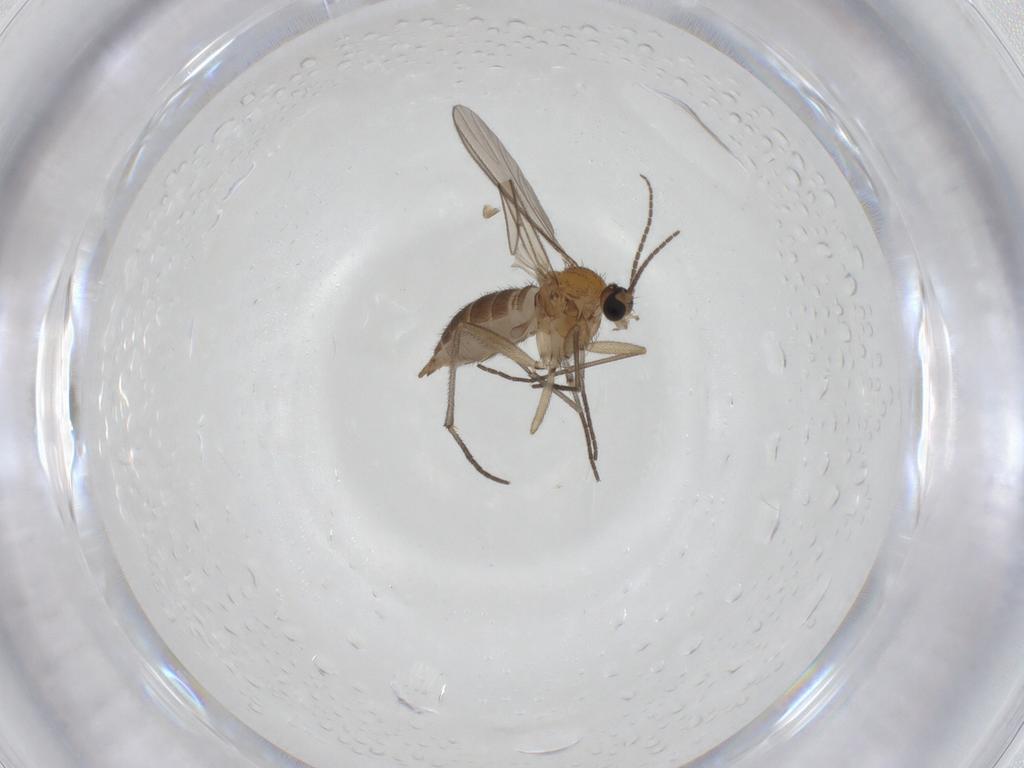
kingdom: Animalia
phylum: Arthropoda
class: Insecta
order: Diptera
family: Sciaridae
